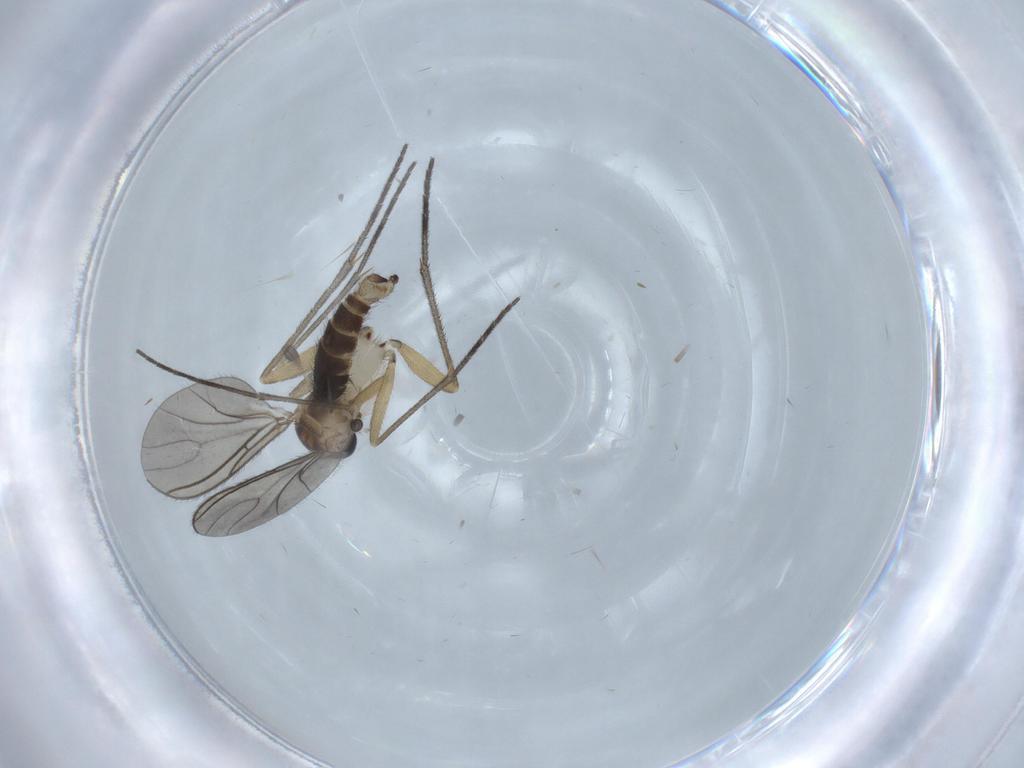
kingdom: Animalia
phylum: Arthropoda
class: Insecta
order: Diptera
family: Sciaridae
